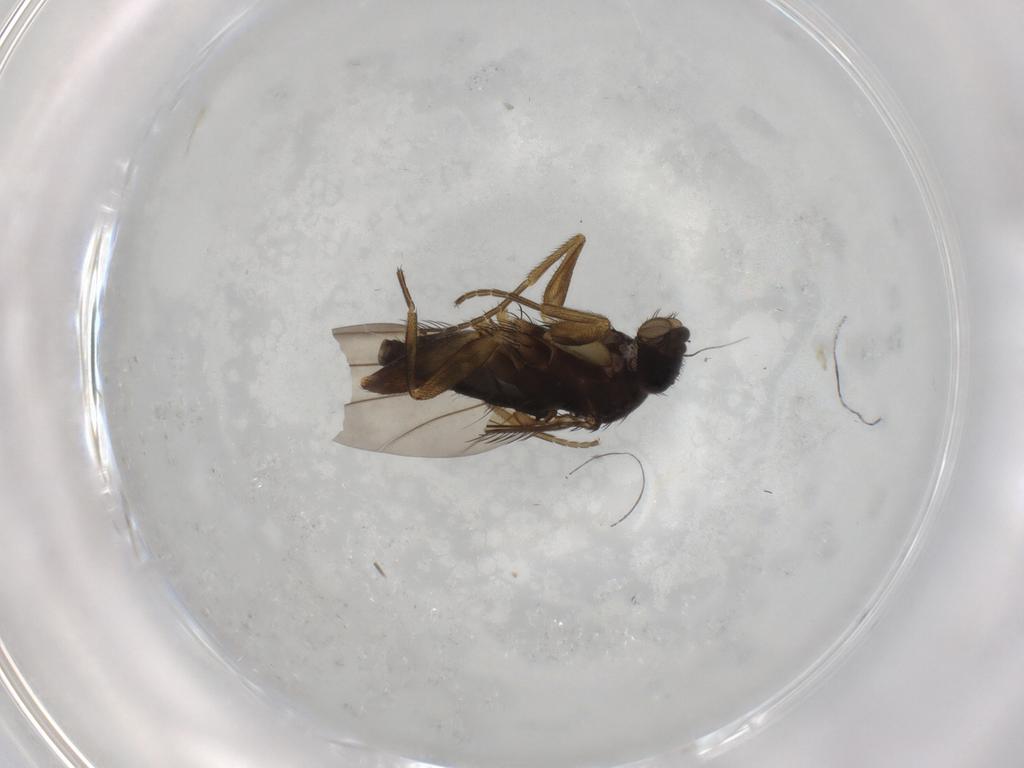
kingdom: Animalia
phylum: Arthropoda
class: Insecta
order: Diptera
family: Phoridae
